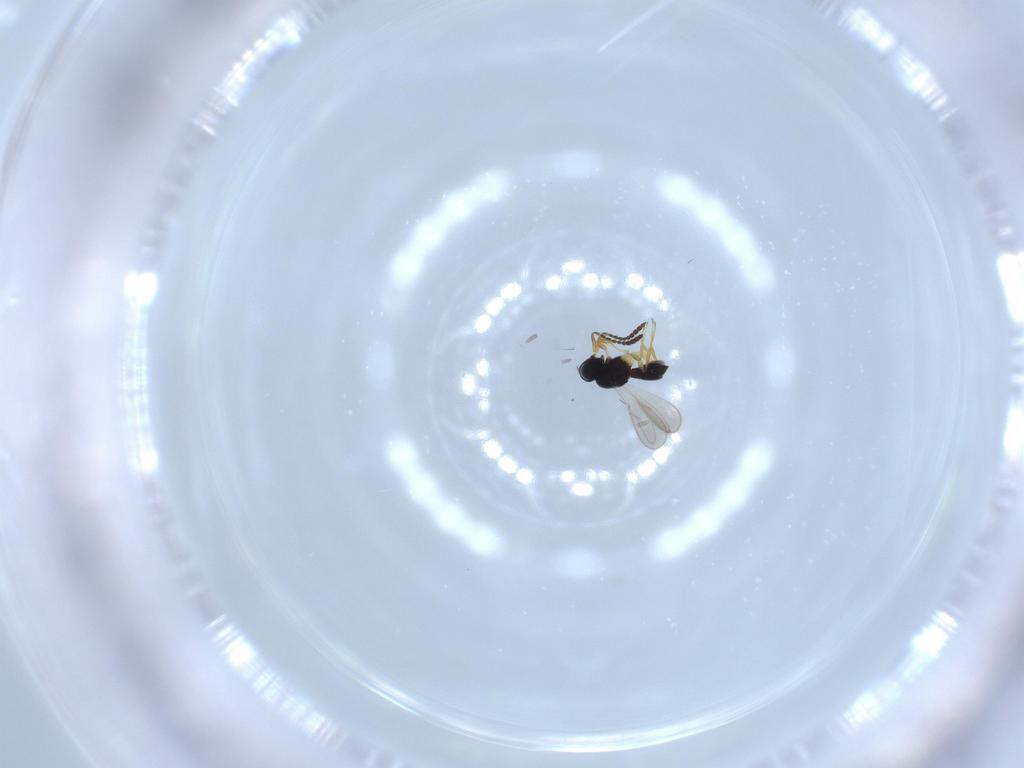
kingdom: Animalia
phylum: Arthropoda
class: Insecta
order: Hymenoptera
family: Scelionidae
